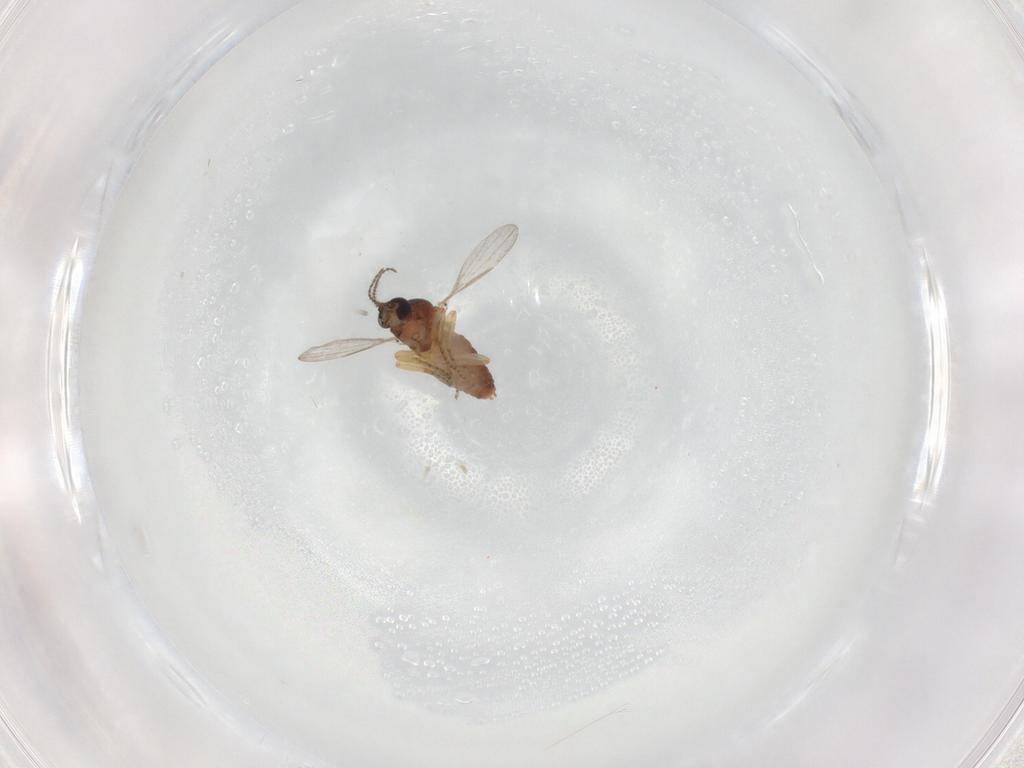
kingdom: Animalia
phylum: Arthropoda
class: Insecta
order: Diptera
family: Ceratopogonidae
